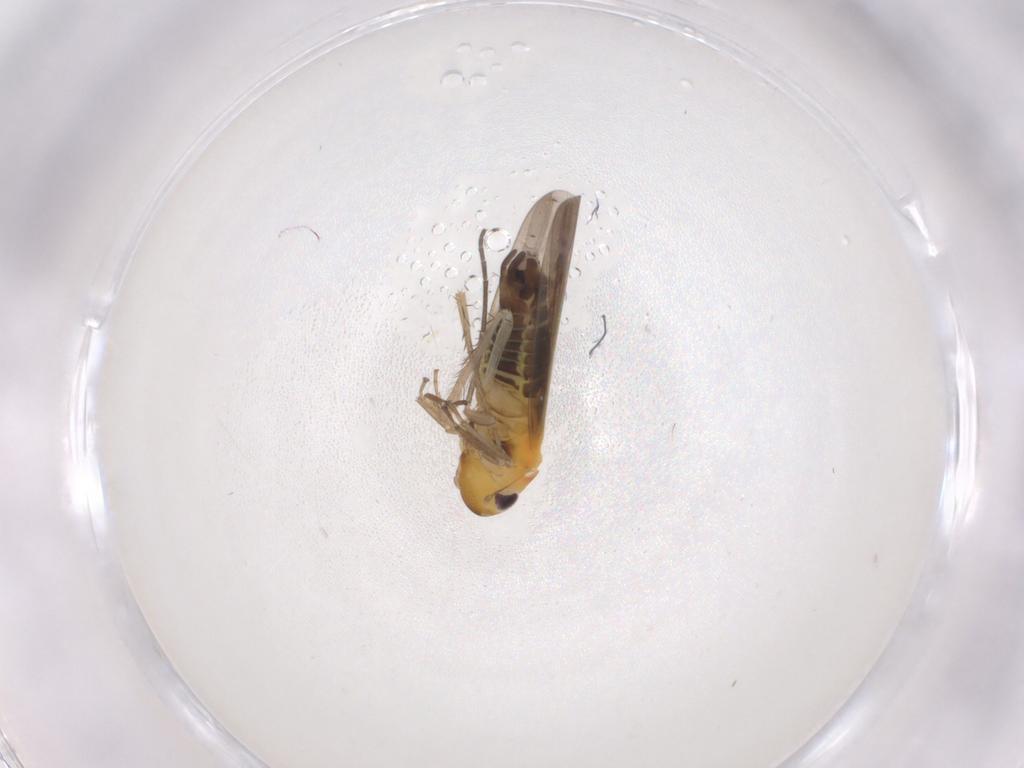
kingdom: Animalia
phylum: Arthropoda
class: Insecta
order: Hemiptera
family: Cicadellidae
